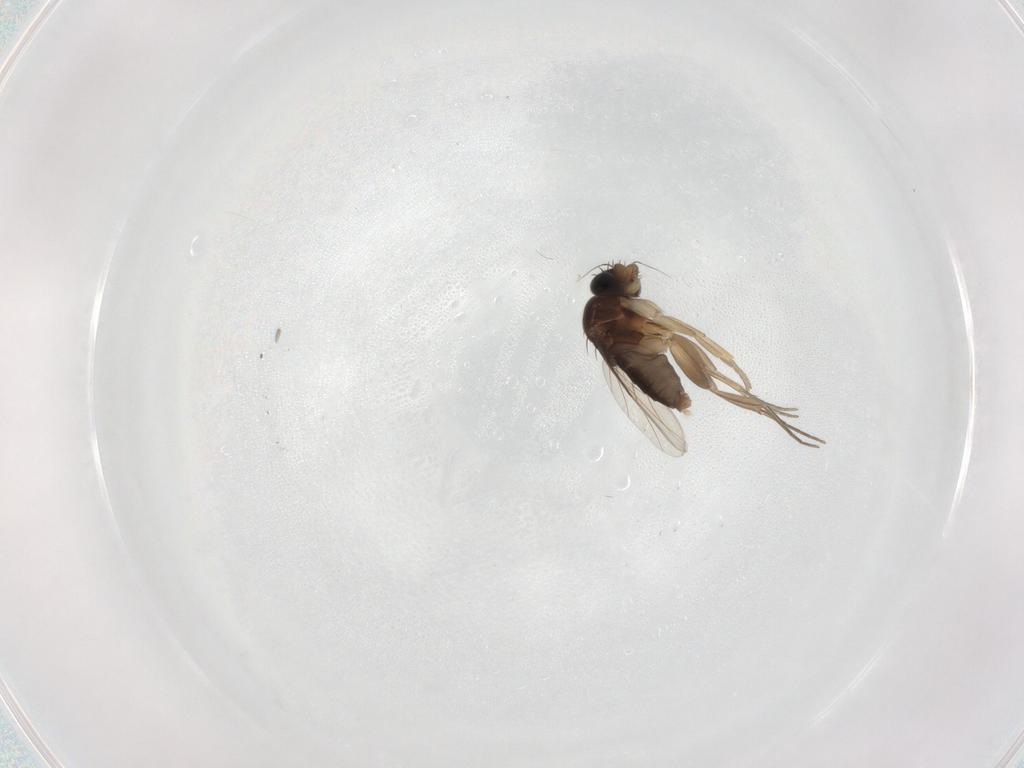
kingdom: Animalia
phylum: Arthropoda
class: Insecta
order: Diptera
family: Phoridae
